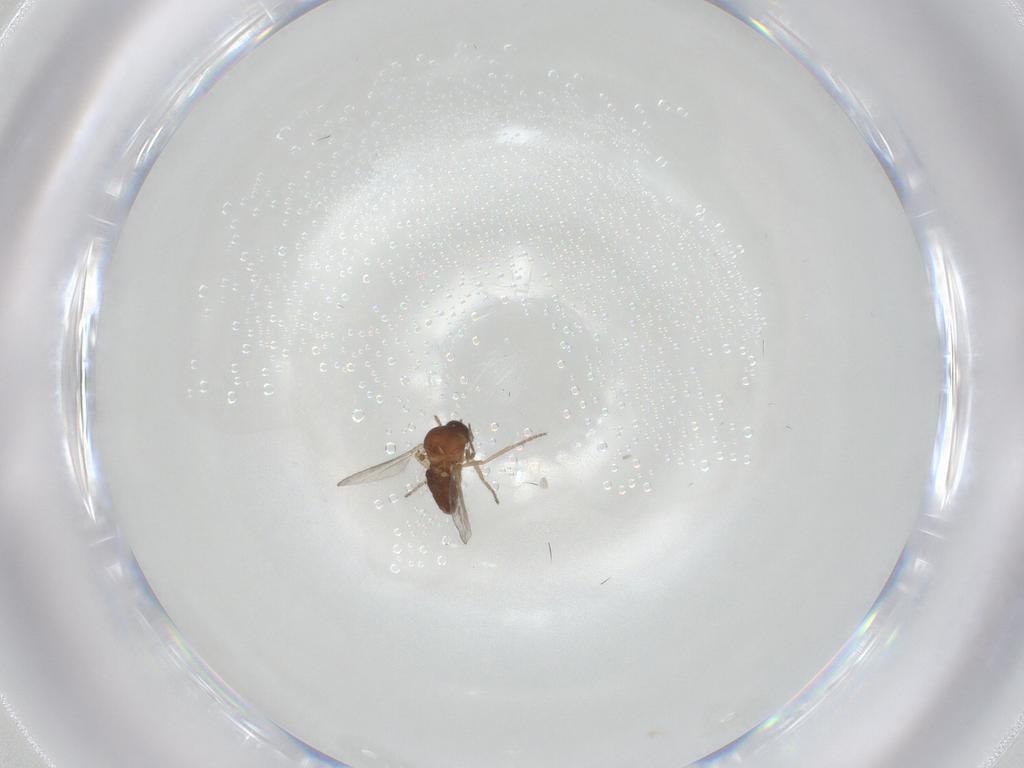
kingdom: Animalia
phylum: Arthropoda
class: Insecta
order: Diptera
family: Ceratopogonidae
